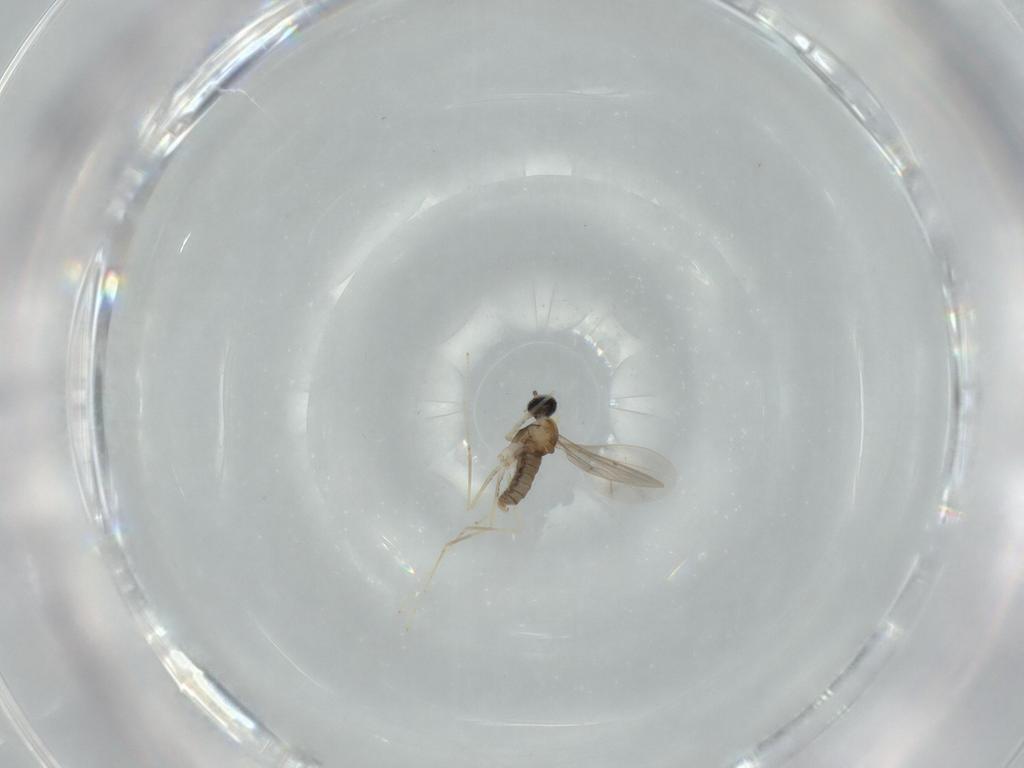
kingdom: Animalia
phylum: Arthropoda
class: Insecta
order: Diptera
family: Cecidomyiidae
